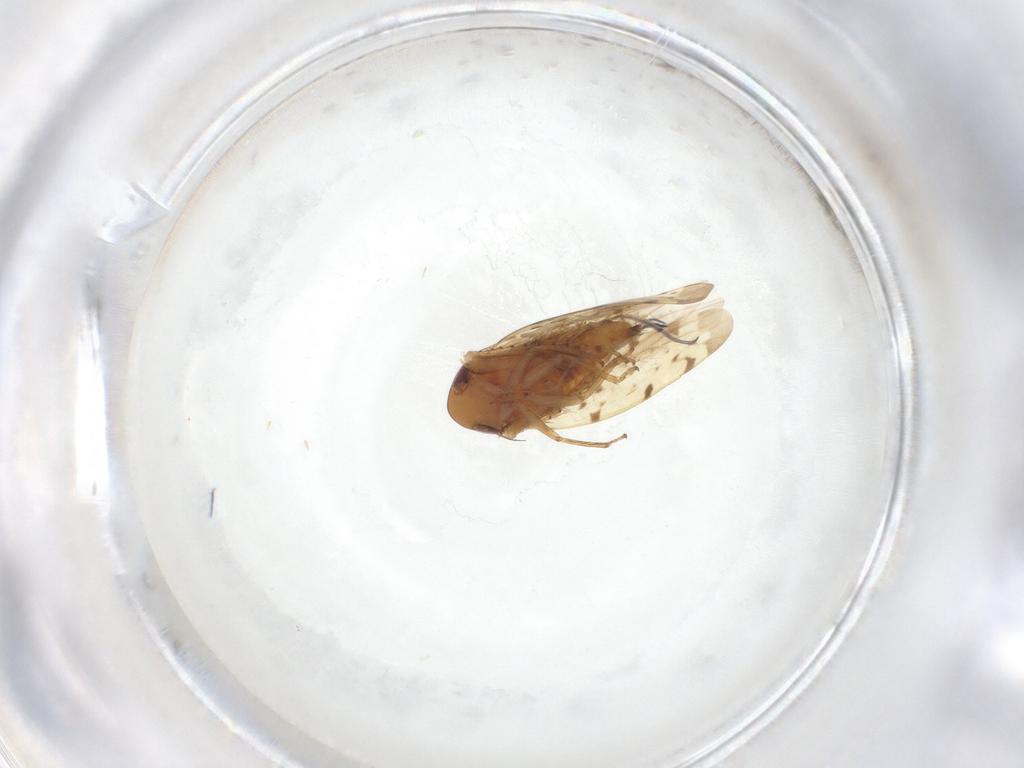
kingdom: Animalia
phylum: Arthropoda
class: Insecta
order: Hemiptera
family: Cicadellidae
